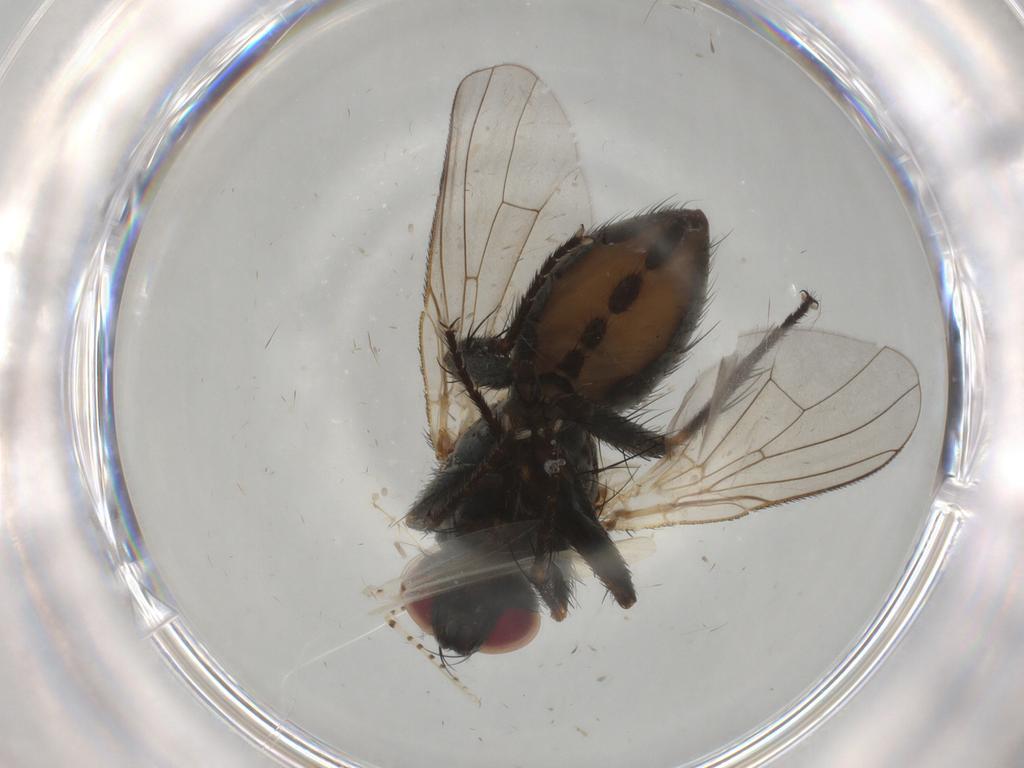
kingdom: Animalia
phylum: Arthropoda
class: Insecta
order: Diptera
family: Muscidae
